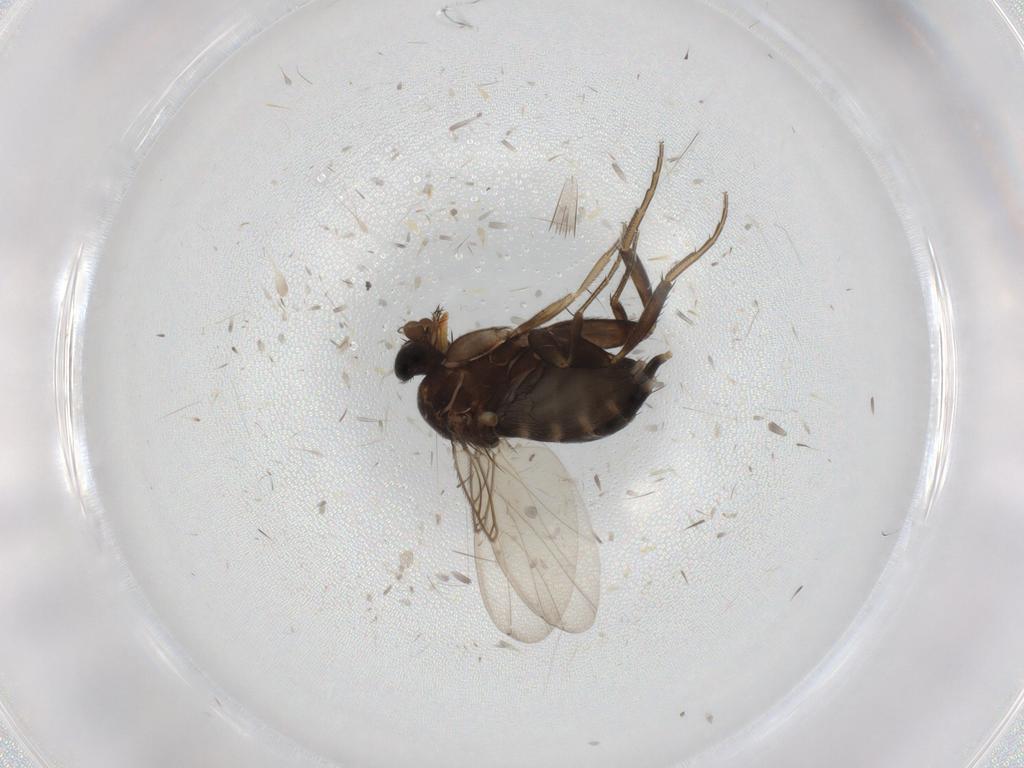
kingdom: Animalia
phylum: Arthropoda
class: Insecta
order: Diptera
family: Phoridae
